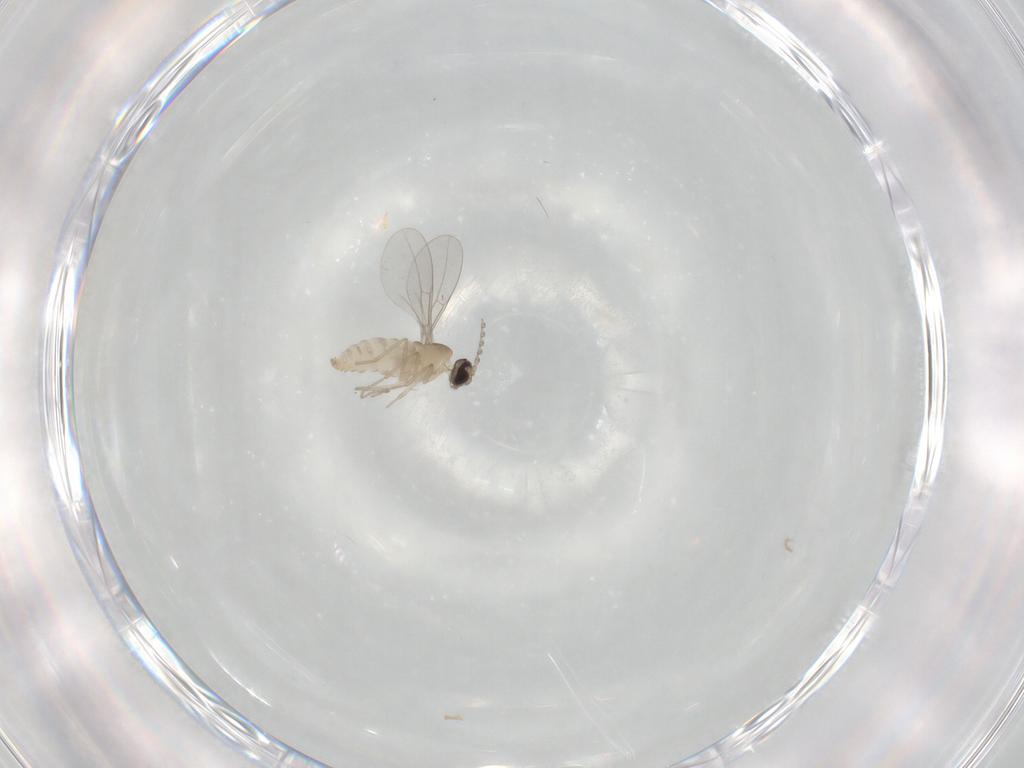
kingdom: Animalia
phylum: Arthropoda
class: Insecta
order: Diptera
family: Cecidomyiidae
